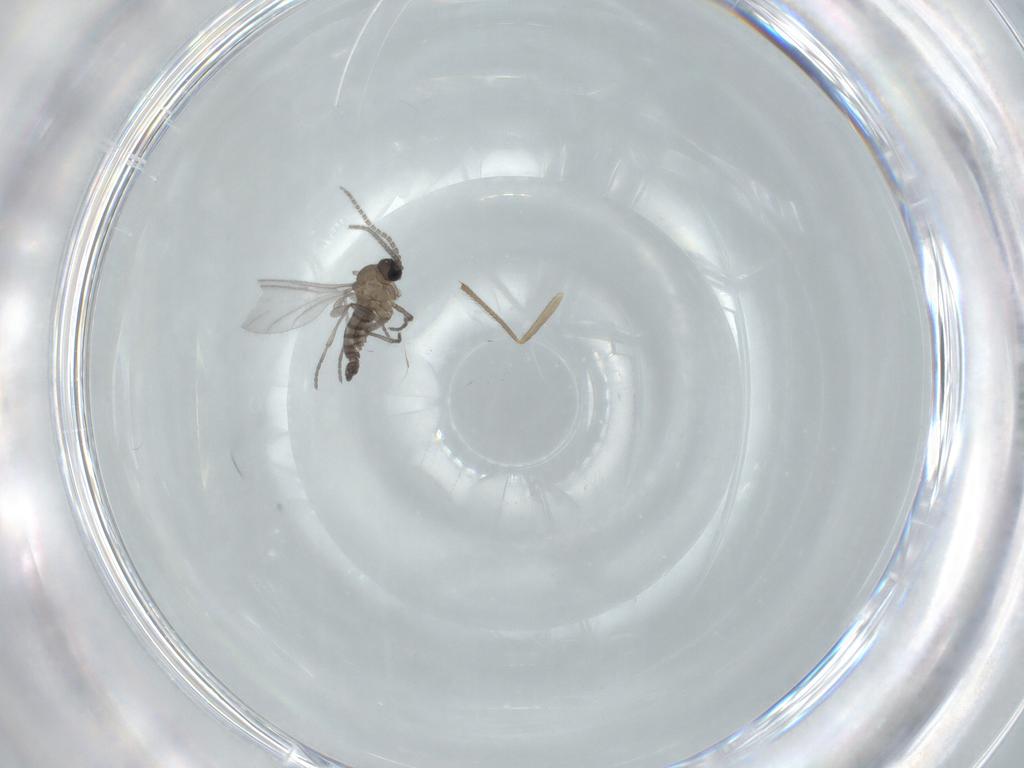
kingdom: Animalia
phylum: Arthropoda
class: Insecta
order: Diptera
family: Sciaridae
